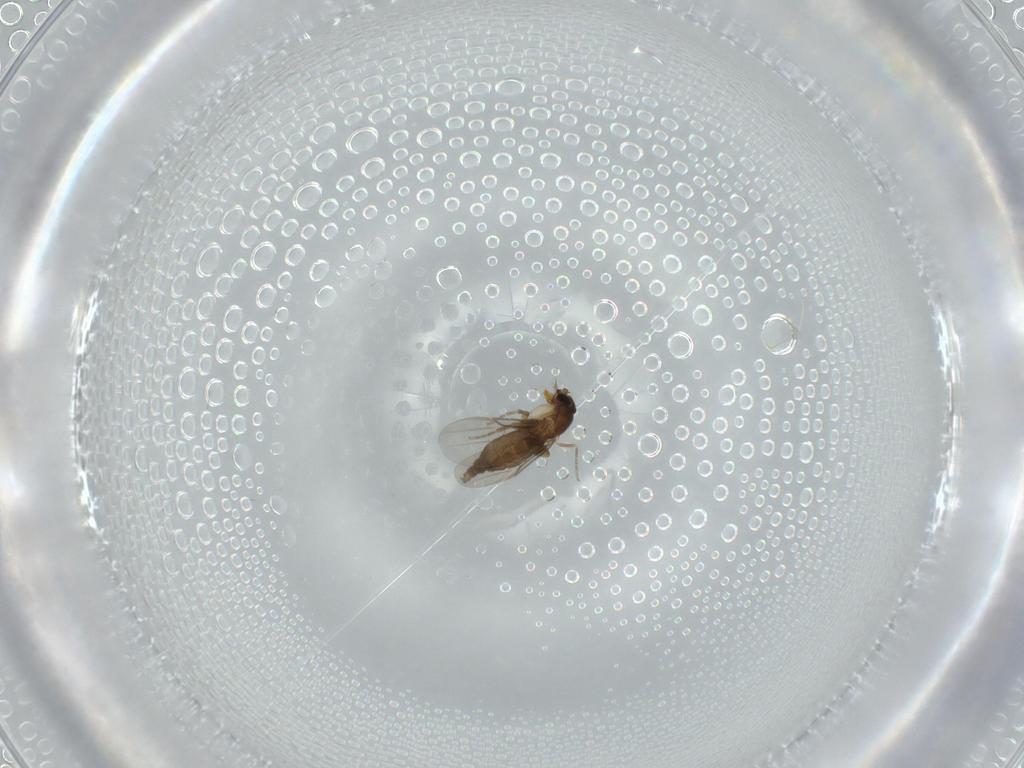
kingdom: Animalia
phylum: Arthropoda
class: Insecta
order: Diptera
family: Phoridae
